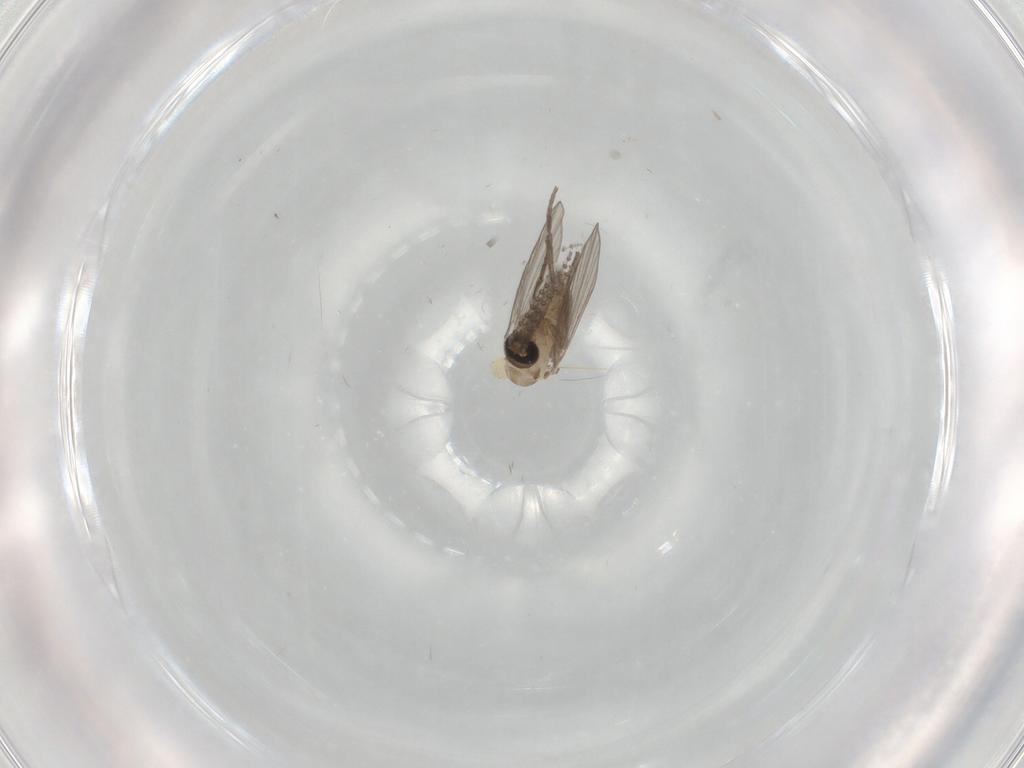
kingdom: Animalia
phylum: Arthropoda
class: Insecta
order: Diptera
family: Psychodidae
